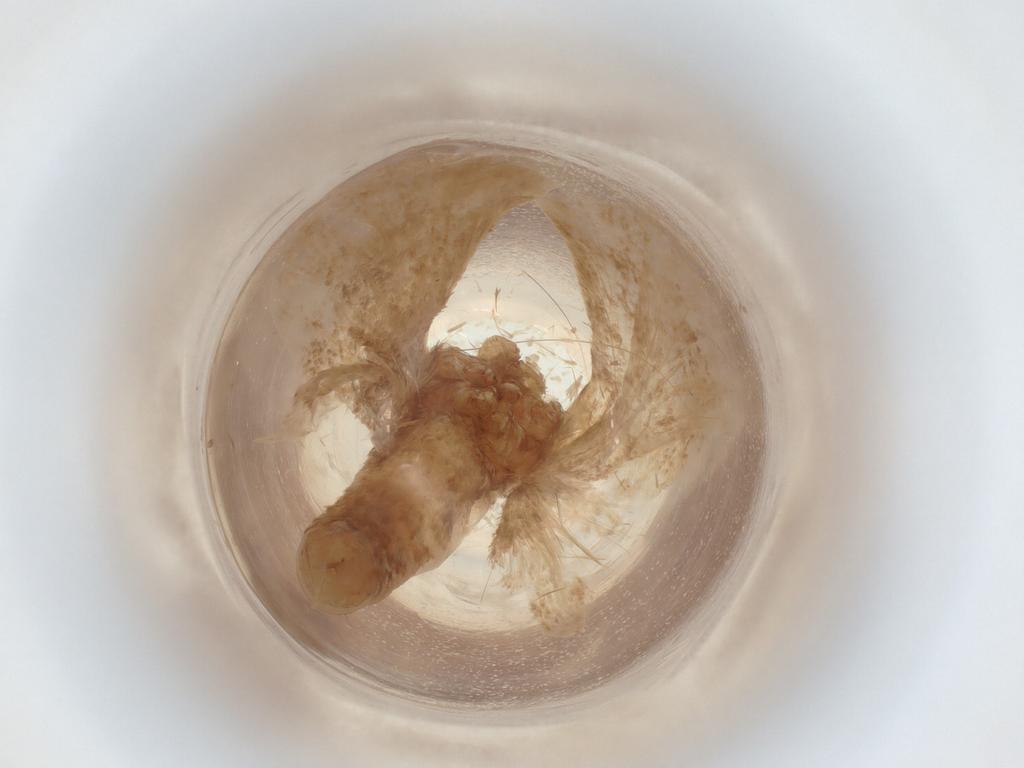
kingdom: Animalia
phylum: Arthropoda
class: Insecta
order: Lepidoptera
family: Pyralidae
